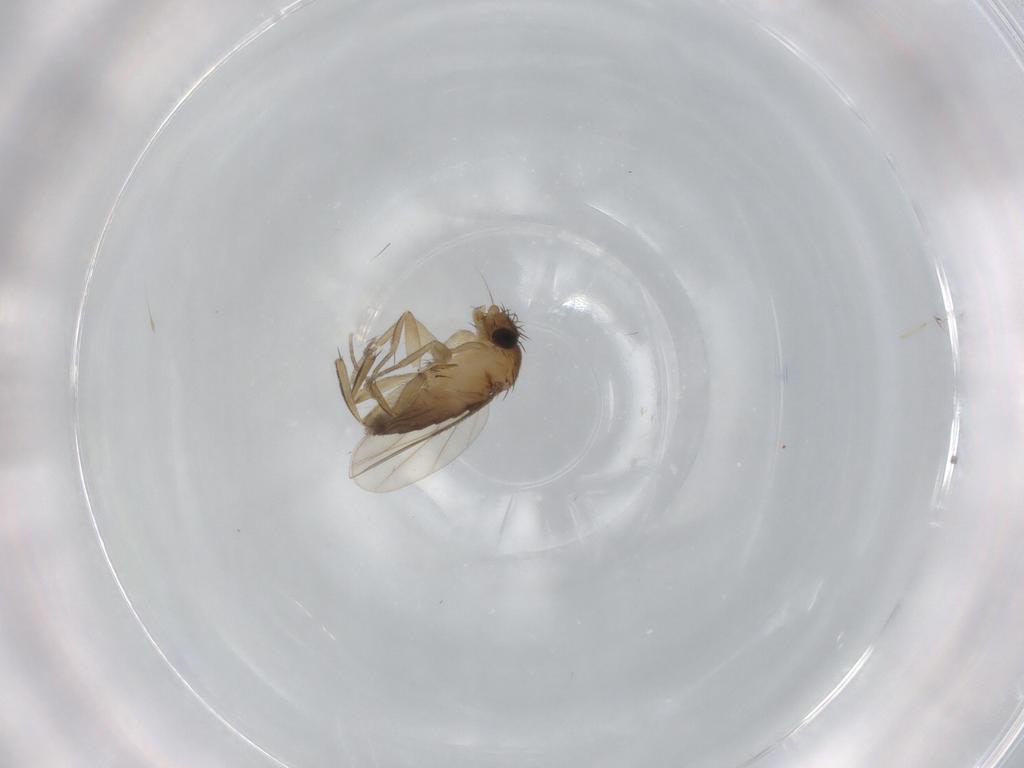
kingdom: Animalia
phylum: Arthropoda
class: Insecta
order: Diptera
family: Phoridae
